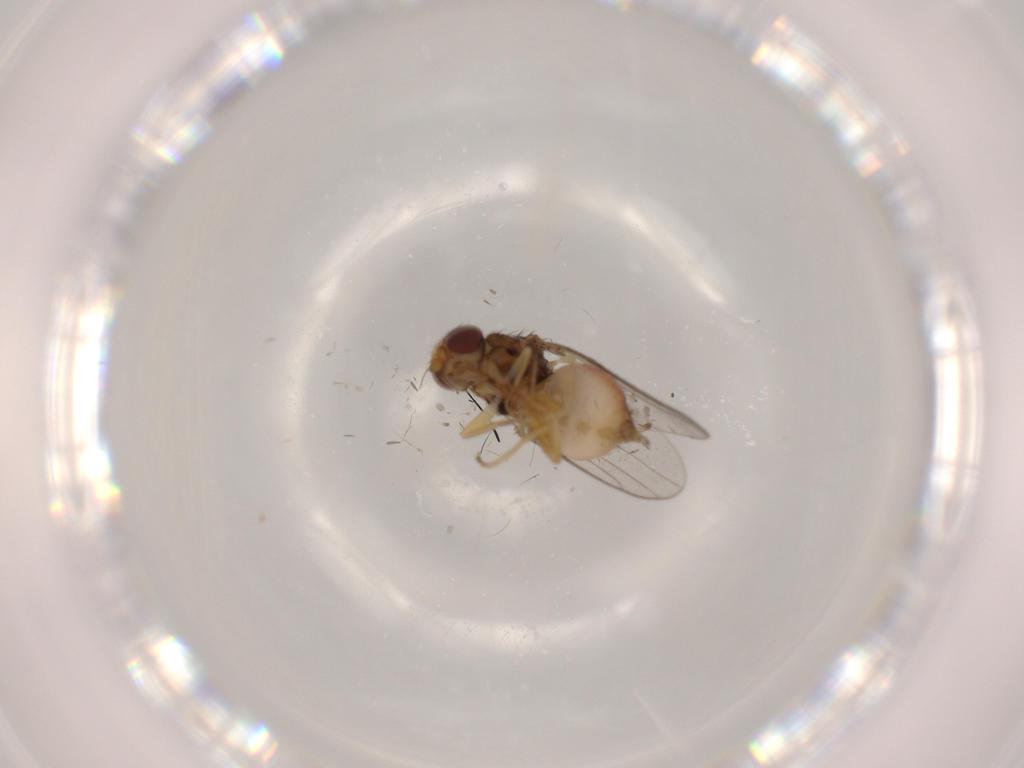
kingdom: Animalia
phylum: Arthropoda
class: Insecta
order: Diptera
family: Chloropidae
